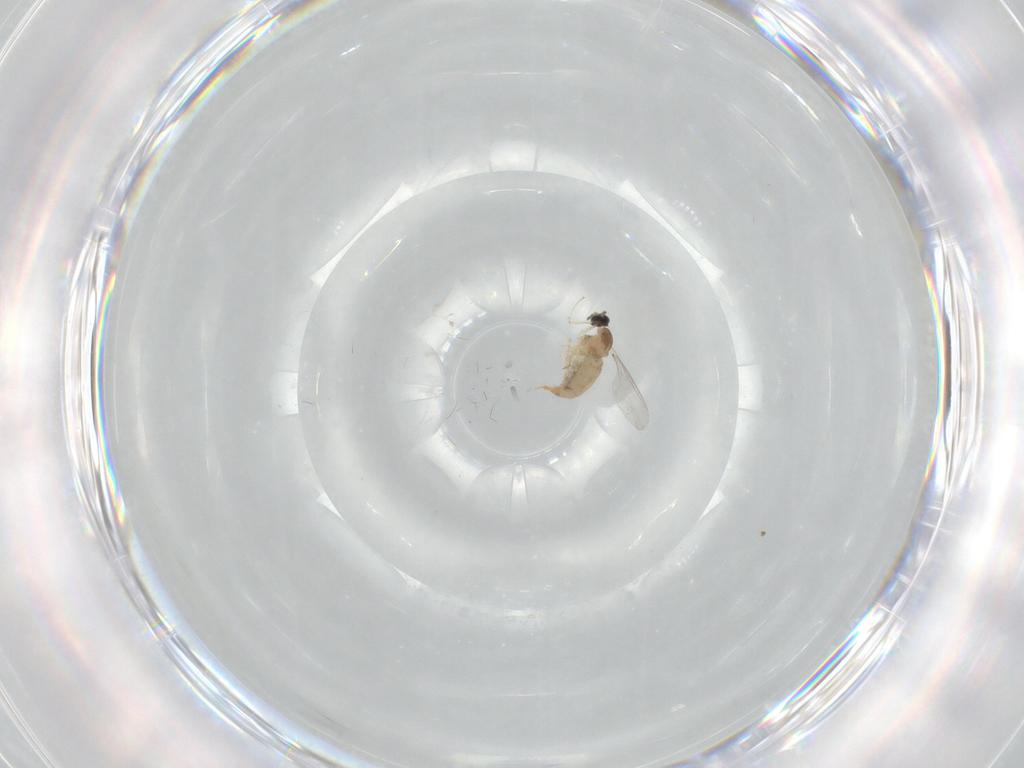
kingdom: Animalia
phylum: Arthropoda
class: Insecta
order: Diptera
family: Cecidomyiidae
